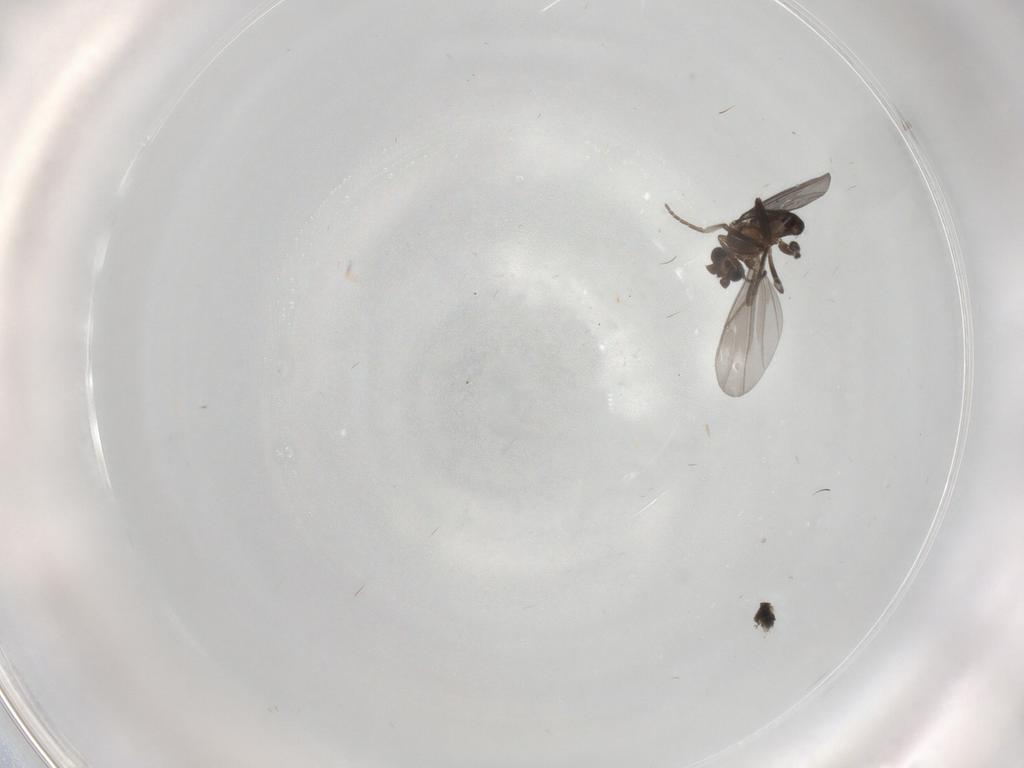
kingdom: Animalia
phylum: Arthropoda
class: Insecta
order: Diptera
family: Phoridae
